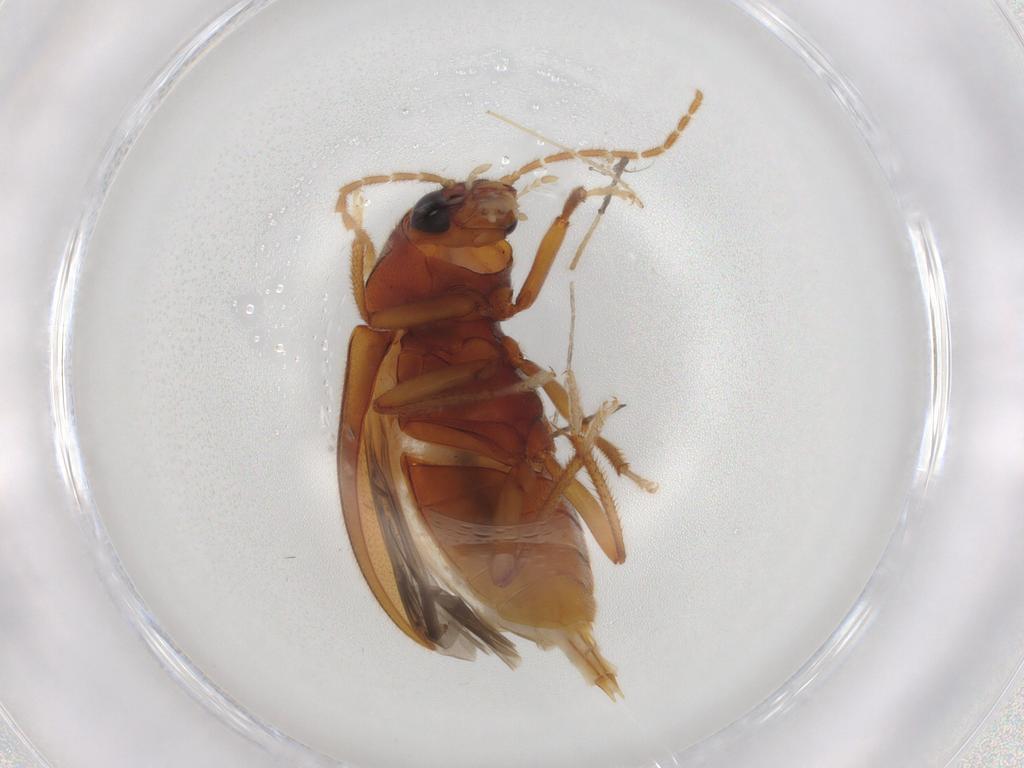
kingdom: Animalia
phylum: Arthropoda
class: Insecta
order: Coleoptera
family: Ptilodactylidae
